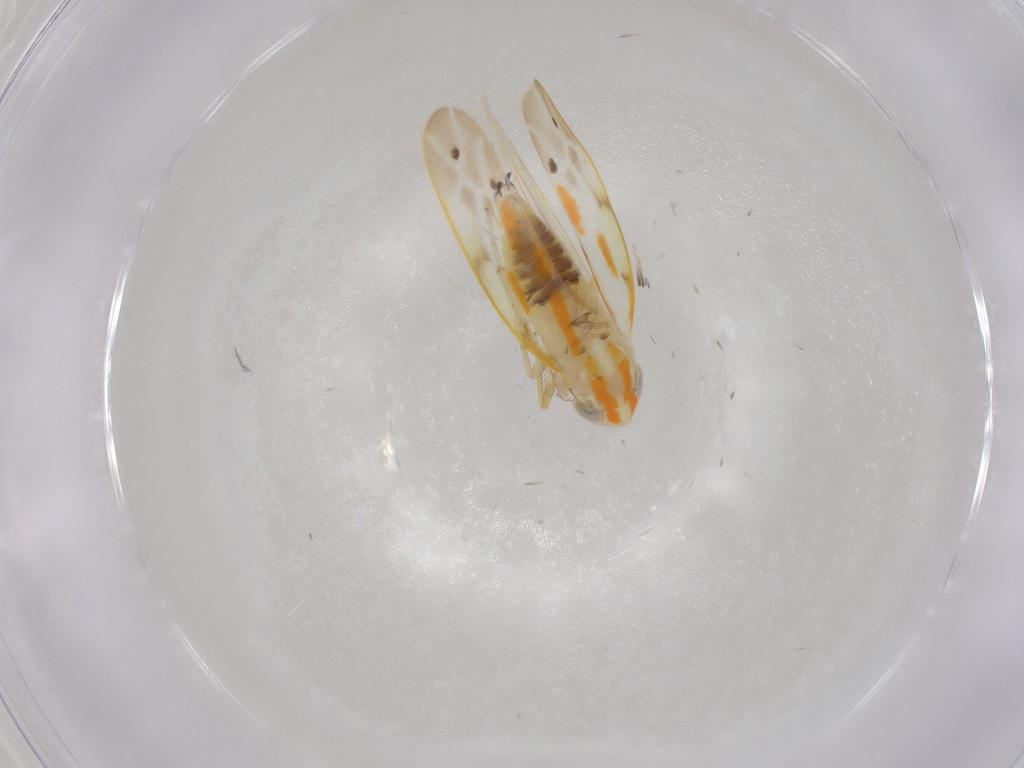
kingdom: Animalia
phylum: Arthropoda
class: Insecta
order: Hemiptera
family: Cicadellidae
